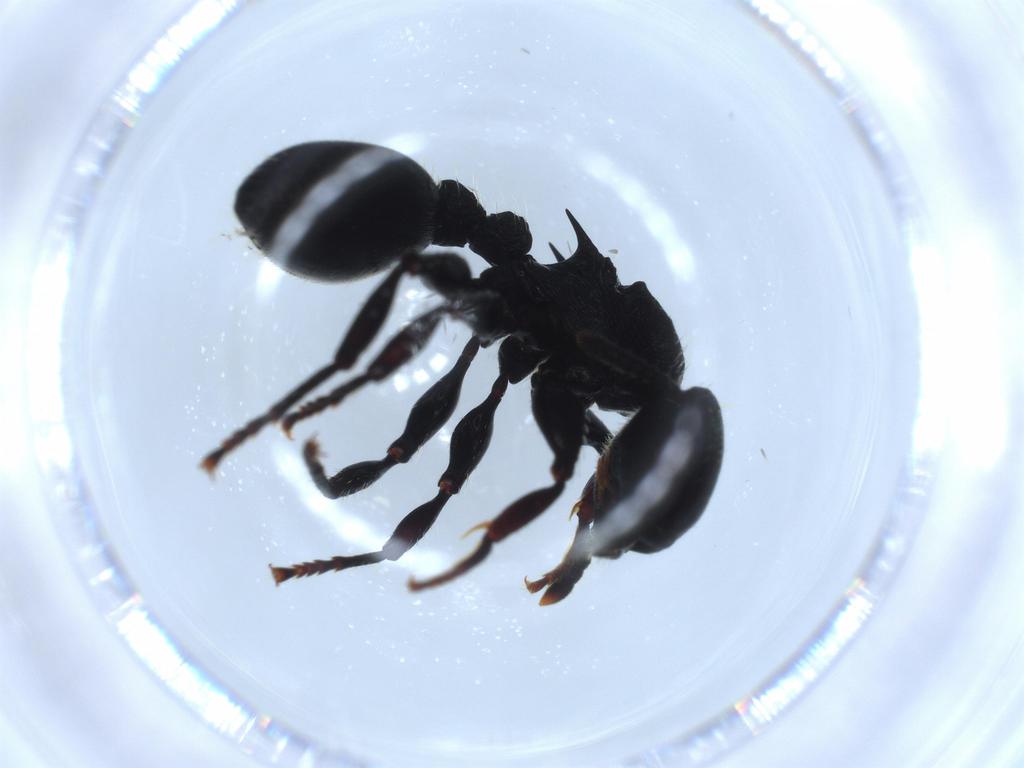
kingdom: Animalia
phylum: Arthropoda
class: Insecta
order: Hymenoptera
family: Formicidae
